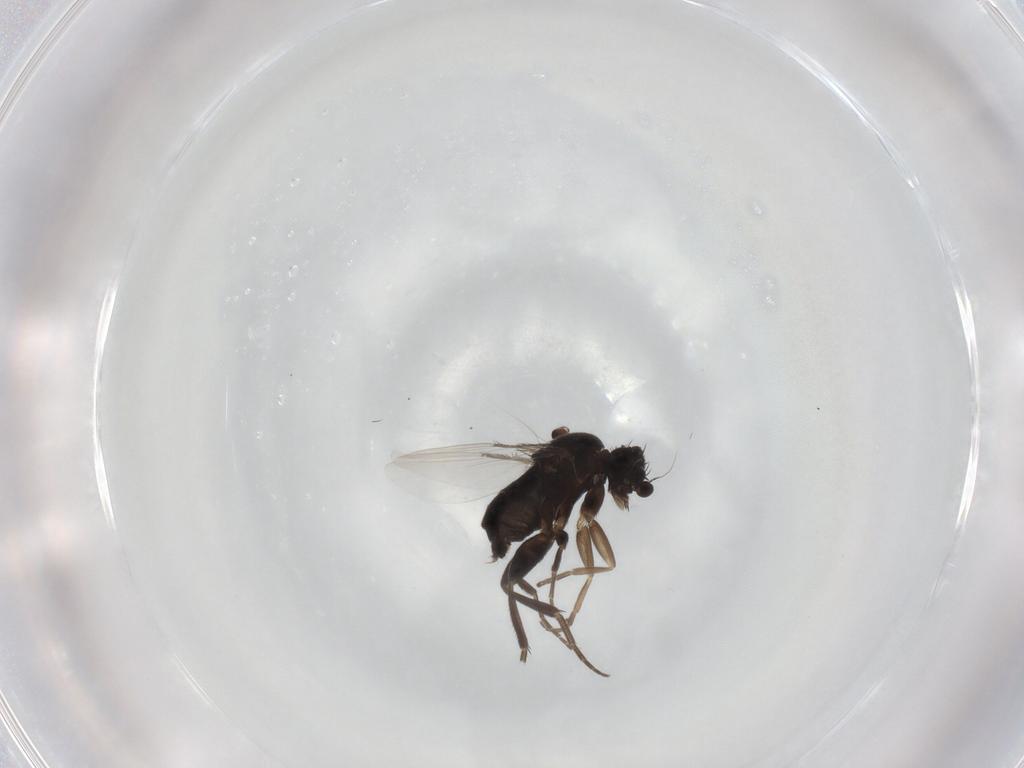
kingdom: Animalia
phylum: Arthropoda
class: Insecta
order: Diptera
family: Phoridae
